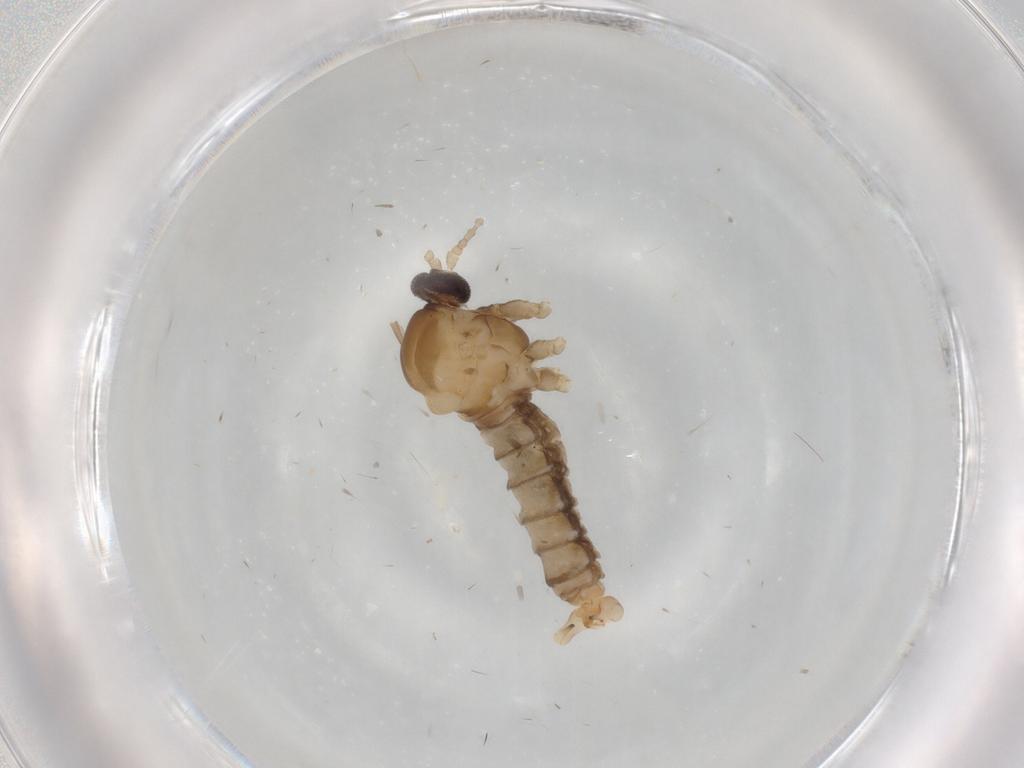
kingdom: Animalia
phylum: Arthropoda
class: Insecta
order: Diptera
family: Cecidomyiidae
